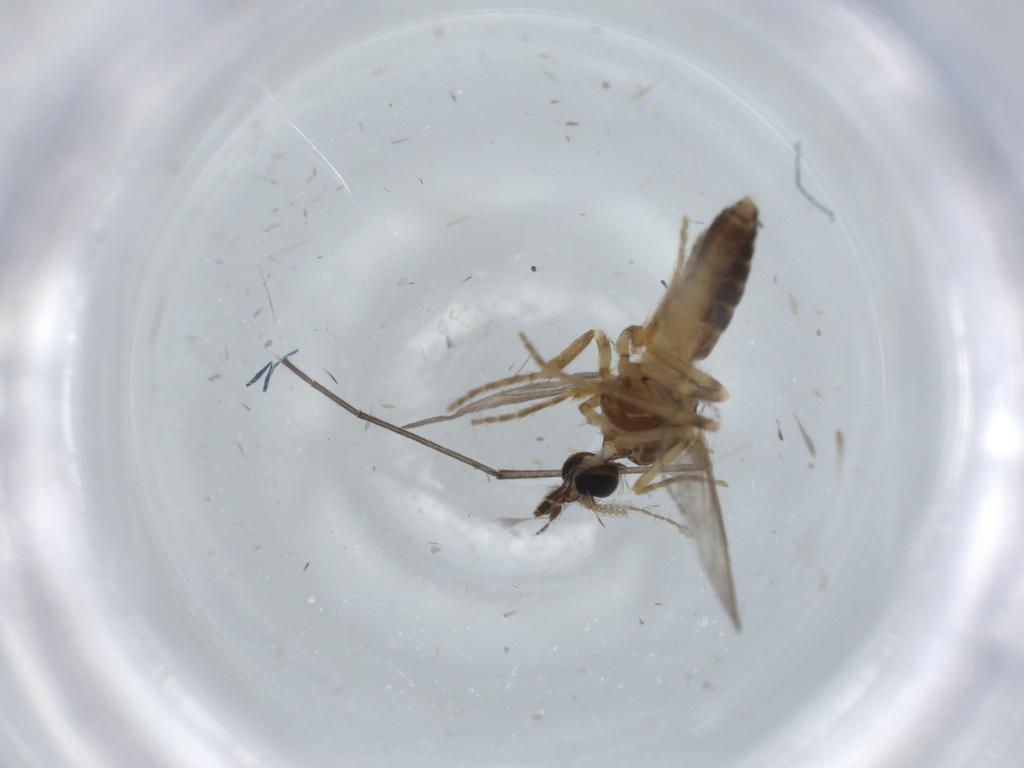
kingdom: Animalia
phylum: Arthropoda
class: Insecta
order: Diptera
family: Ceratopogonidae
